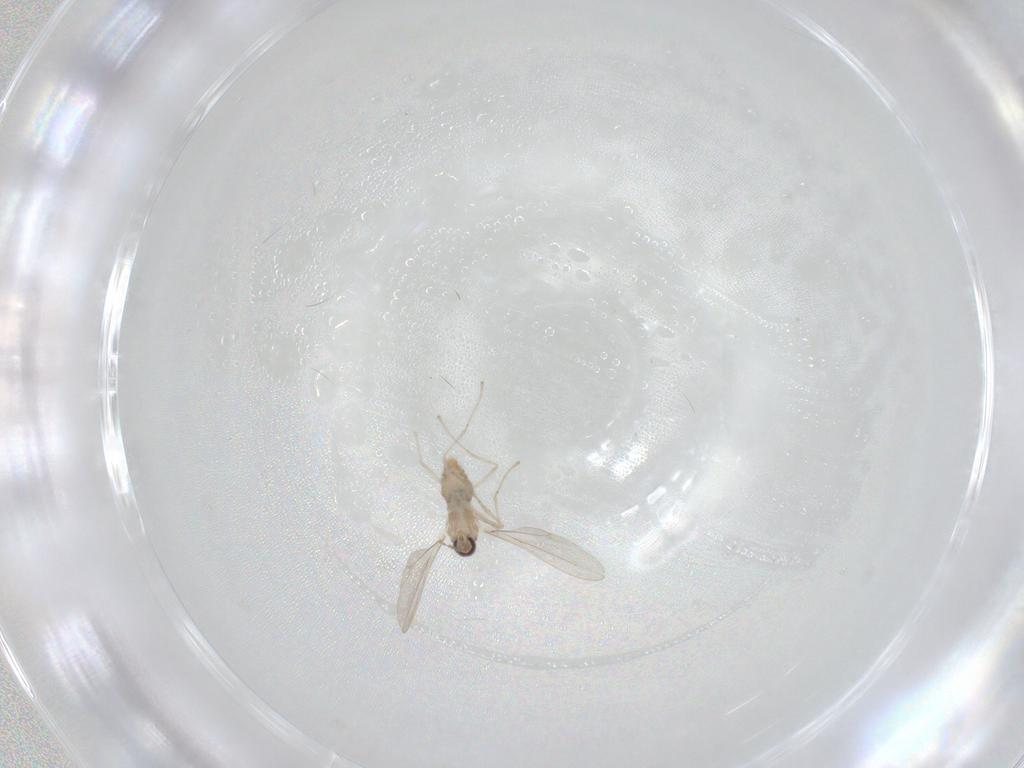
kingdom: Animalia
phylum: Arthropoda
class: Insecta
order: Diptera
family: Cecidomyiidae
